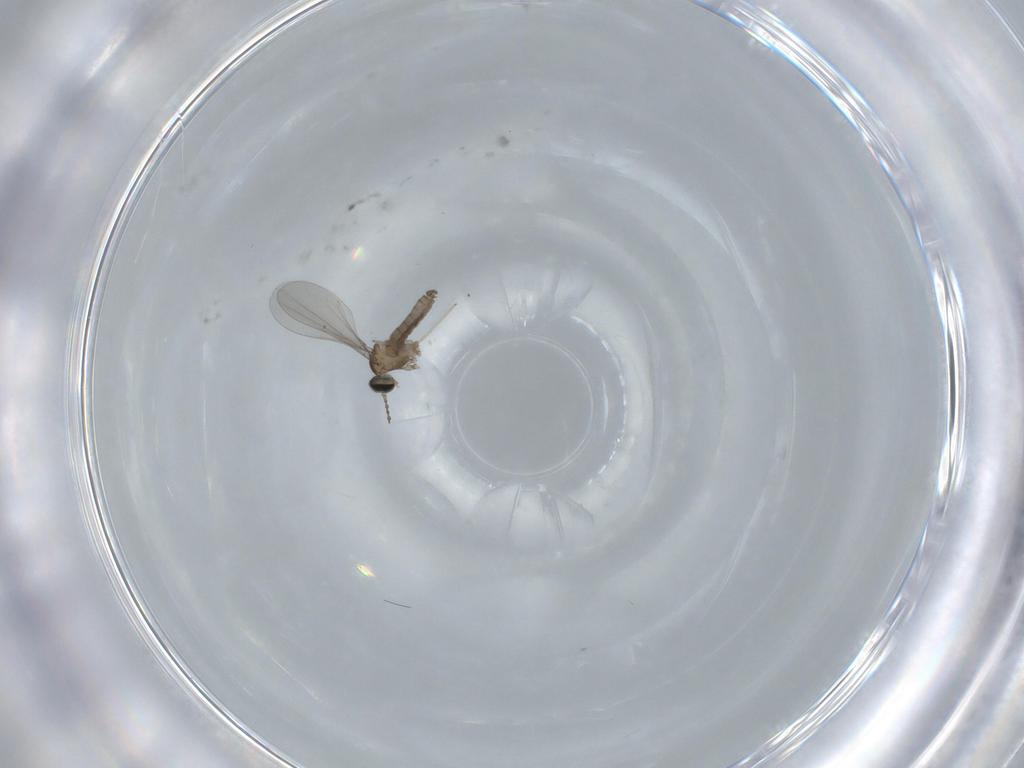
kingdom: Animalia
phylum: Arthropoda
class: Insecta
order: Diptera
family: Cecidomyiidae
